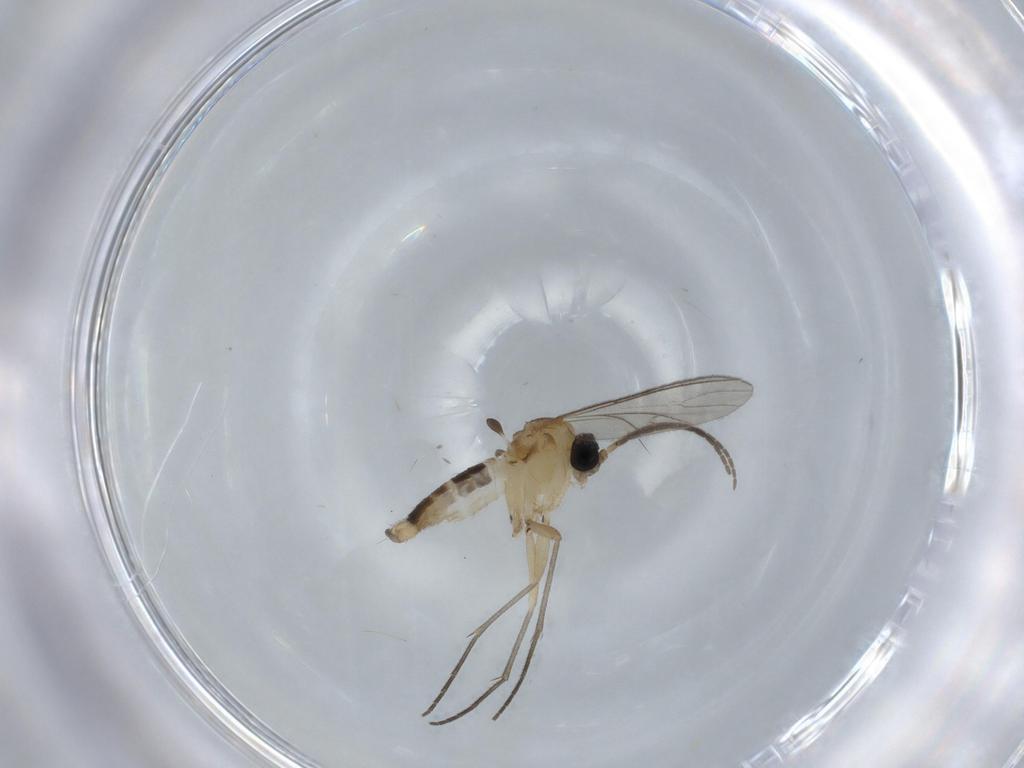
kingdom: Animalia
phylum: Arthropoda
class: Insecta
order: Diptera
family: Sciaridae
